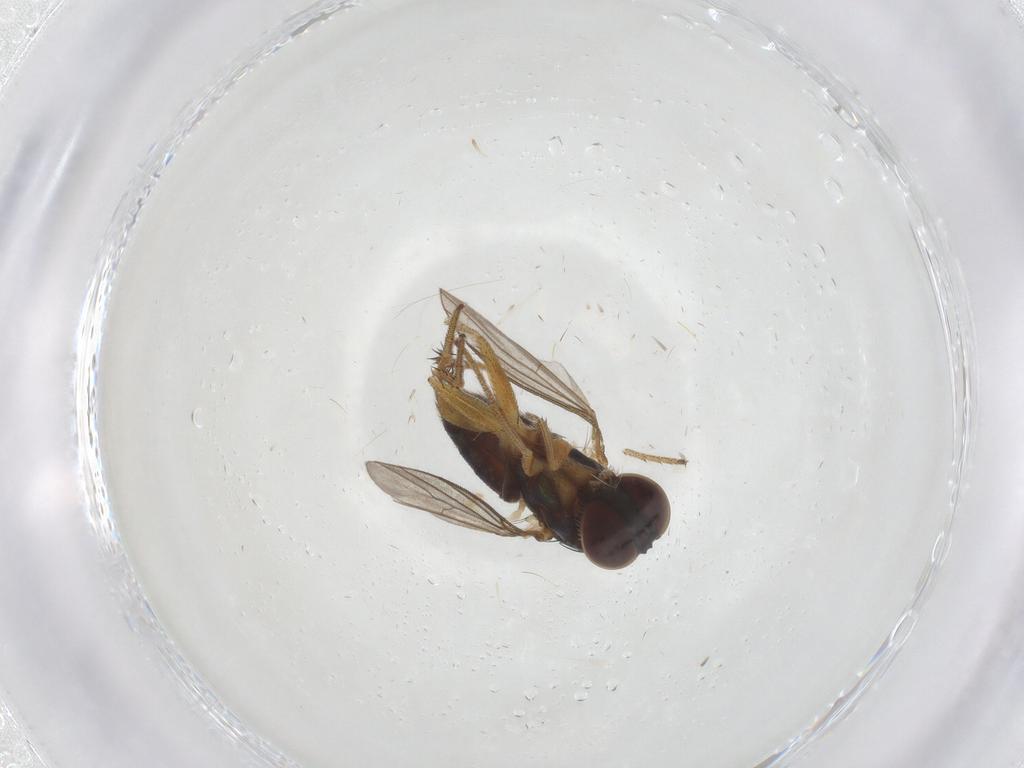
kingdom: Animalia
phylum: Arthropoda
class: Insecta
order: Diptera
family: Cecidomyiidae
